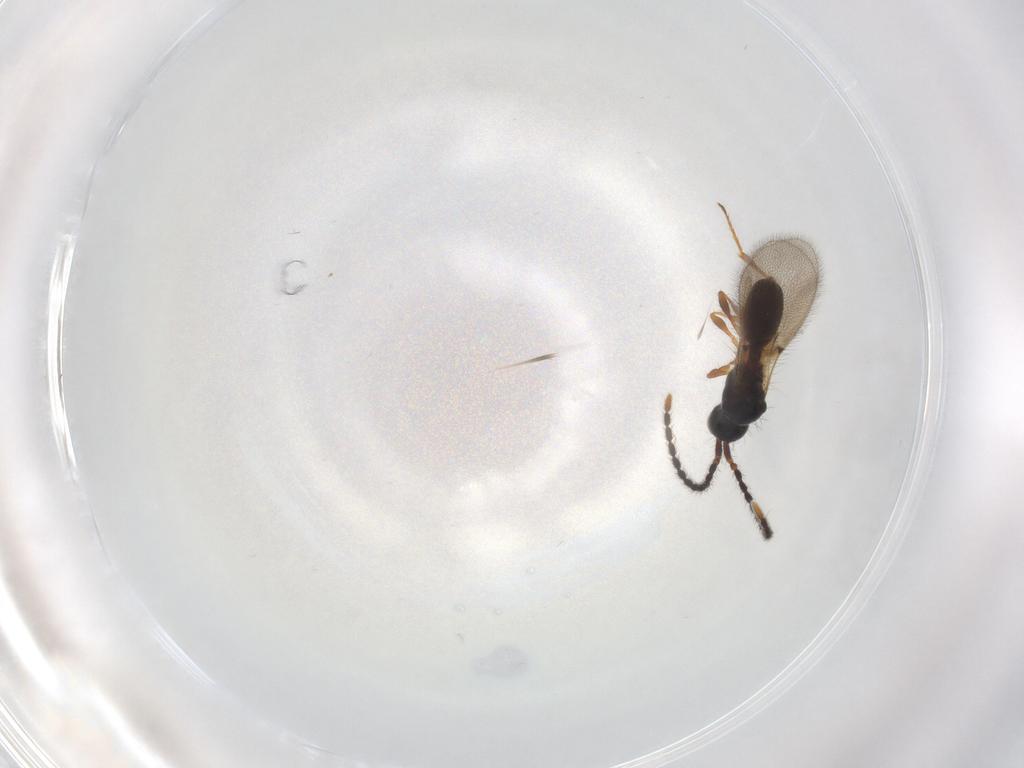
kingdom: Animalia
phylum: Arthropoda
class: Insecta
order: Hymenoptera
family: Diapriidae
